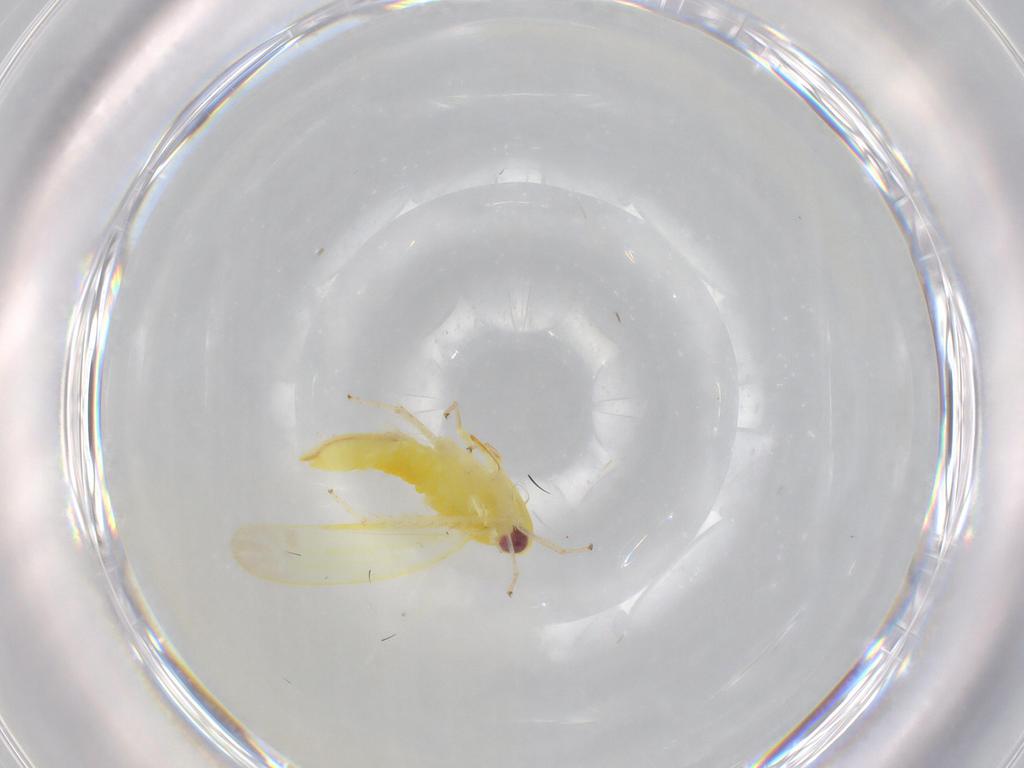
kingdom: Animalia
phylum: Arthropoda
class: Insecta
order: Hemiptera
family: Cicadellidae
